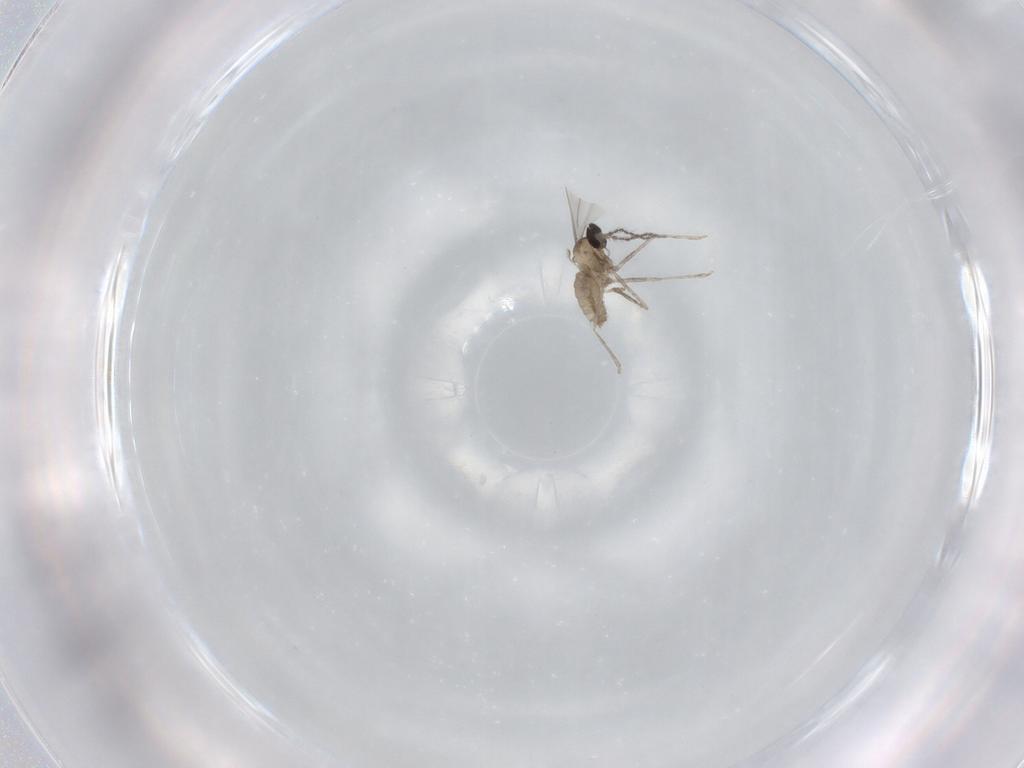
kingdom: Animalia
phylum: Arthropoda
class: Insecta
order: Diptera
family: Cecidomyiidae
